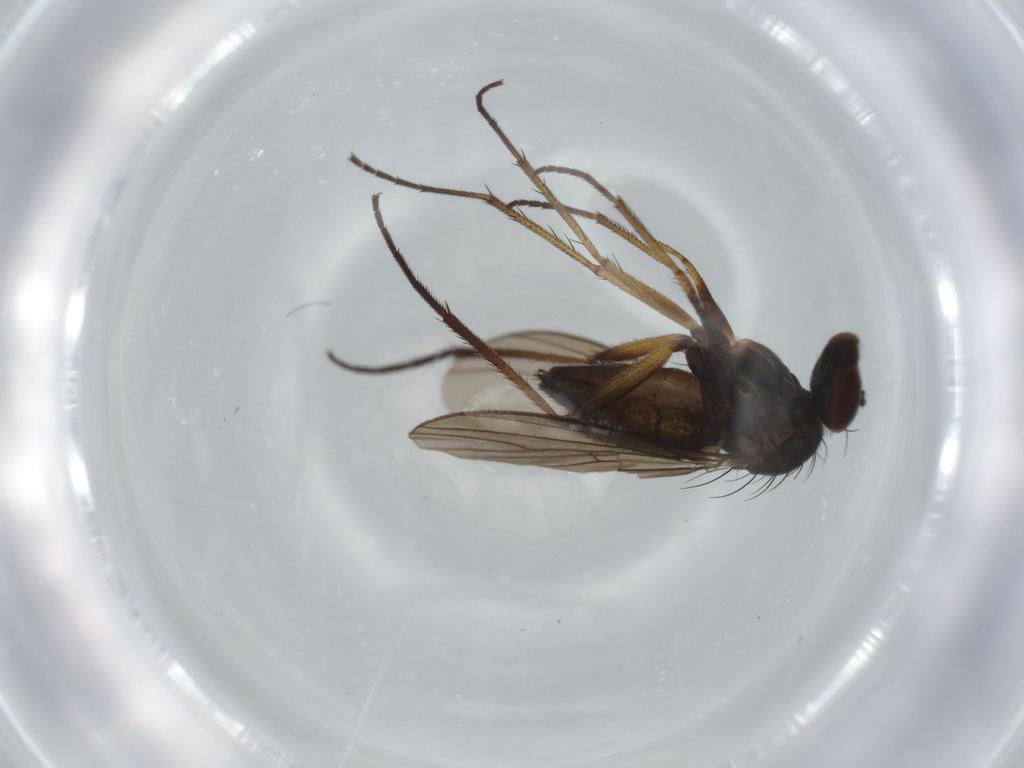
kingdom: Animalia
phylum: Arthropoda
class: Insecta
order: Diptera
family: Dolichopodidae
